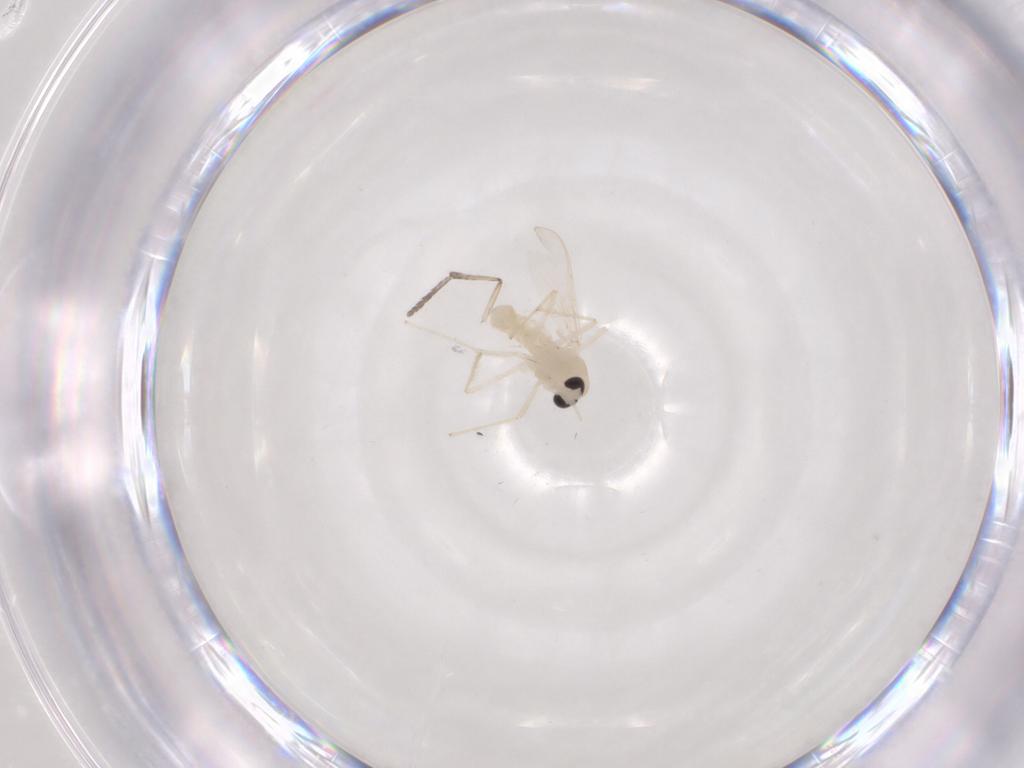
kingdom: Animalia
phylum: Arthropoda
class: Insecta
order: Diptera
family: Chironomidae
